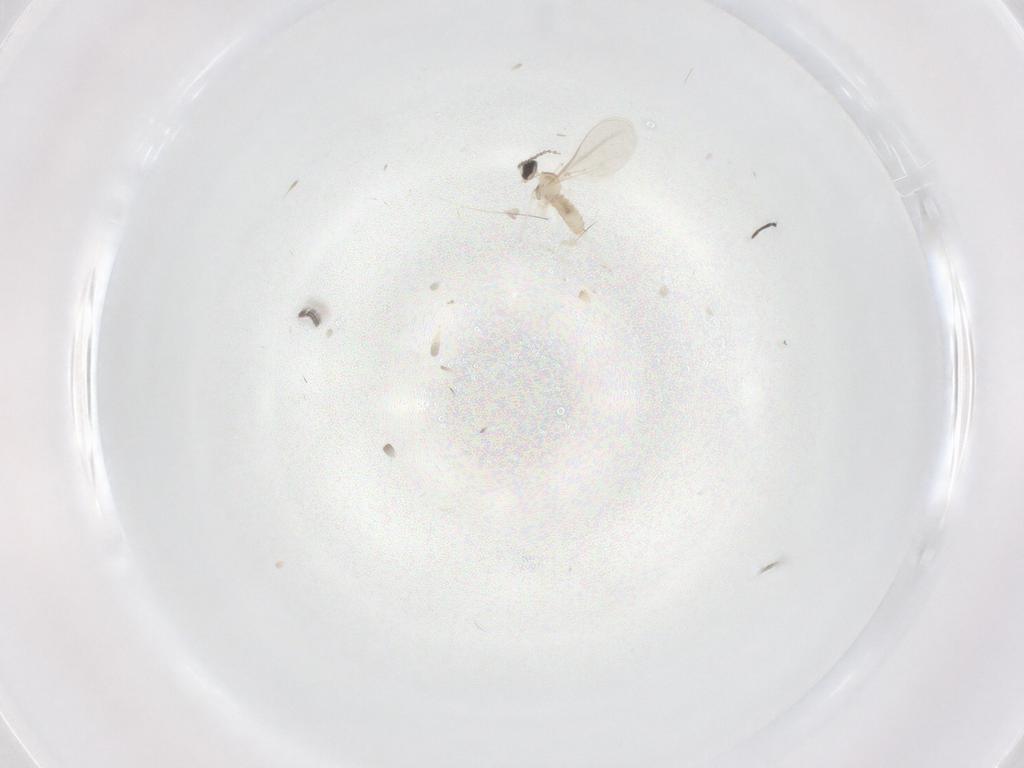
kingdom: Animalia
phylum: Arthropoda
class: Insecta
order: Diptera
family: Cecidomyiidae
